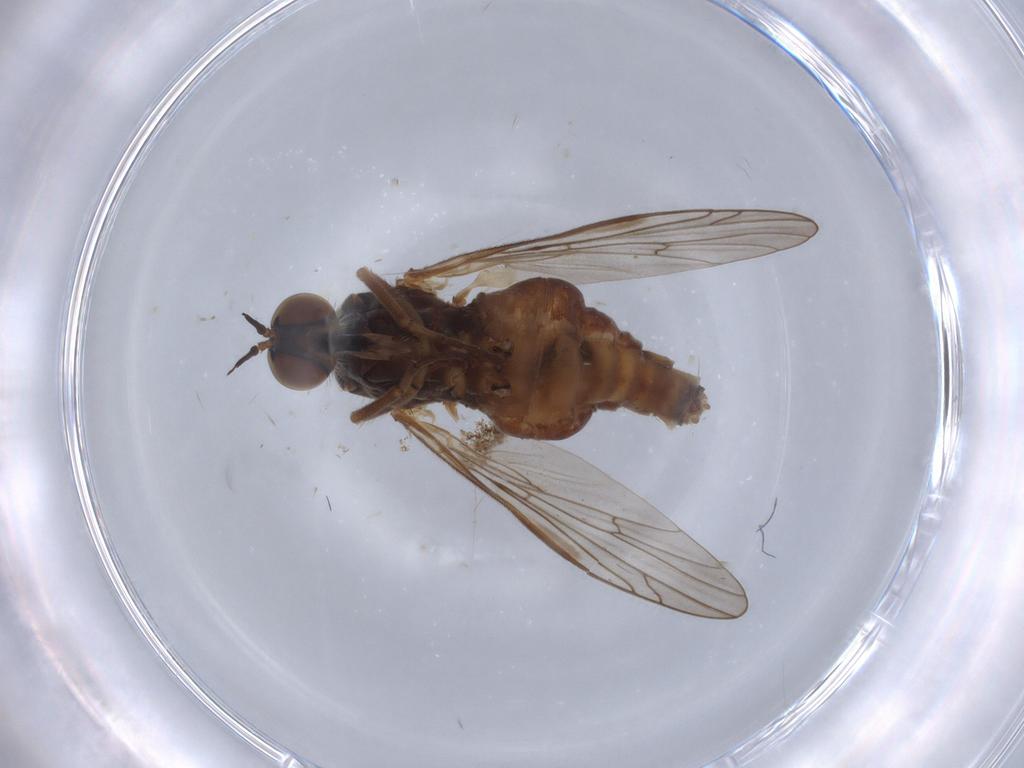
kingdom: Animalia
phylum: Arthropoda
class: Insecta
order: Diptera
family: Empididae
